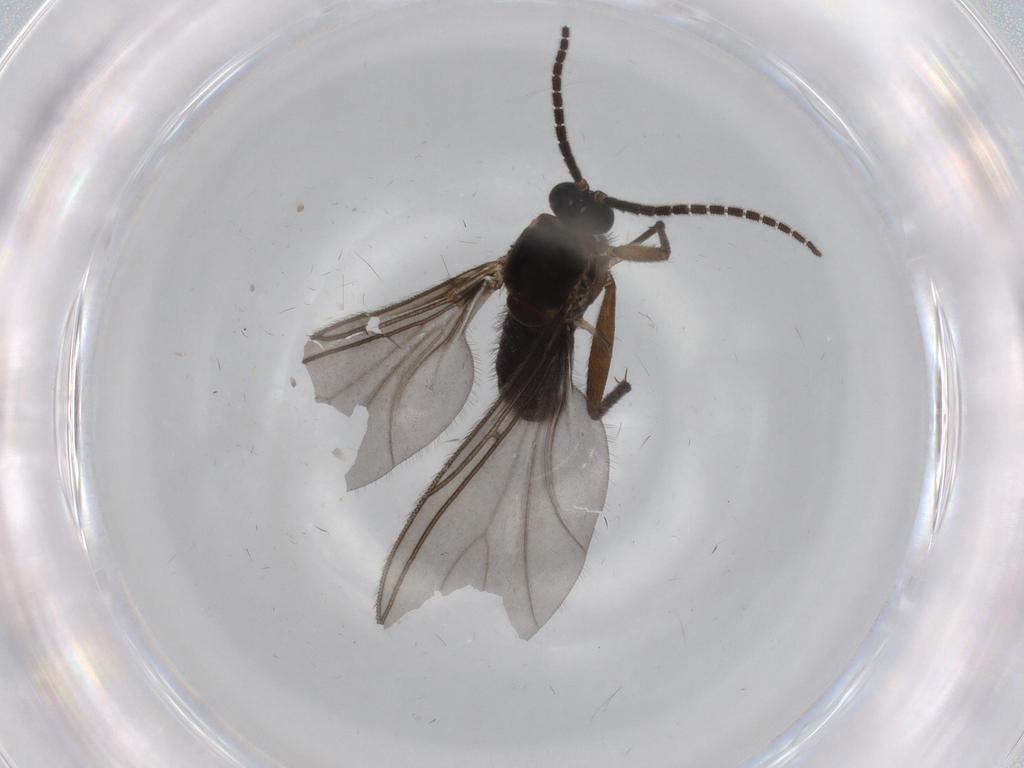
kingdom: Animalia
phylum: Arthropoda
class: Insecta
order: Diptera
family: Sciaridae
